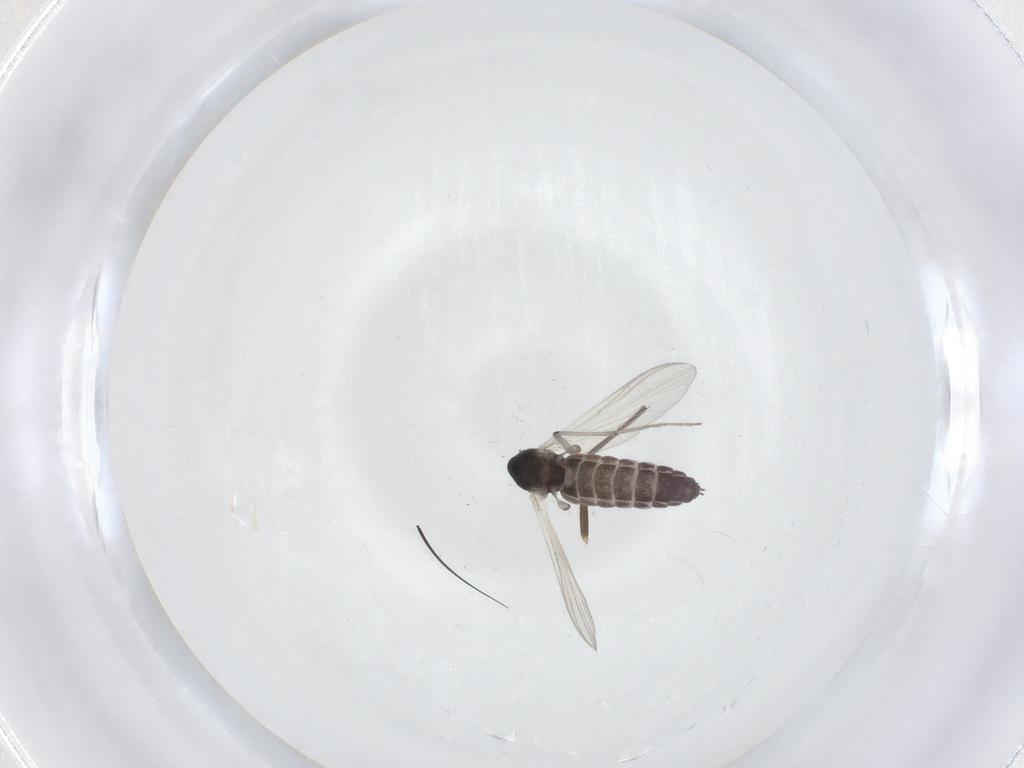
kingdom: Animalia
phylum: Arthropoda
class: Insecta
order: Diptera
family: Chironomidae
